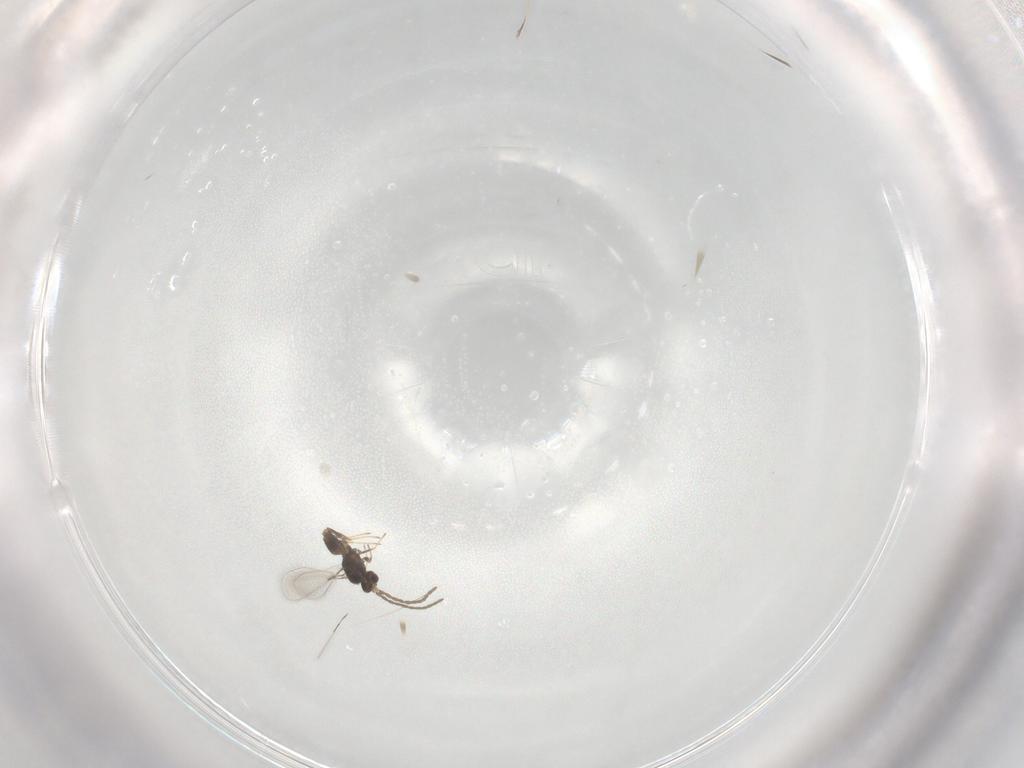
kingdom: Animalia
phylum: Arthropoda
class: Insecta
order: Hymenoptera
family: Mymaridae
